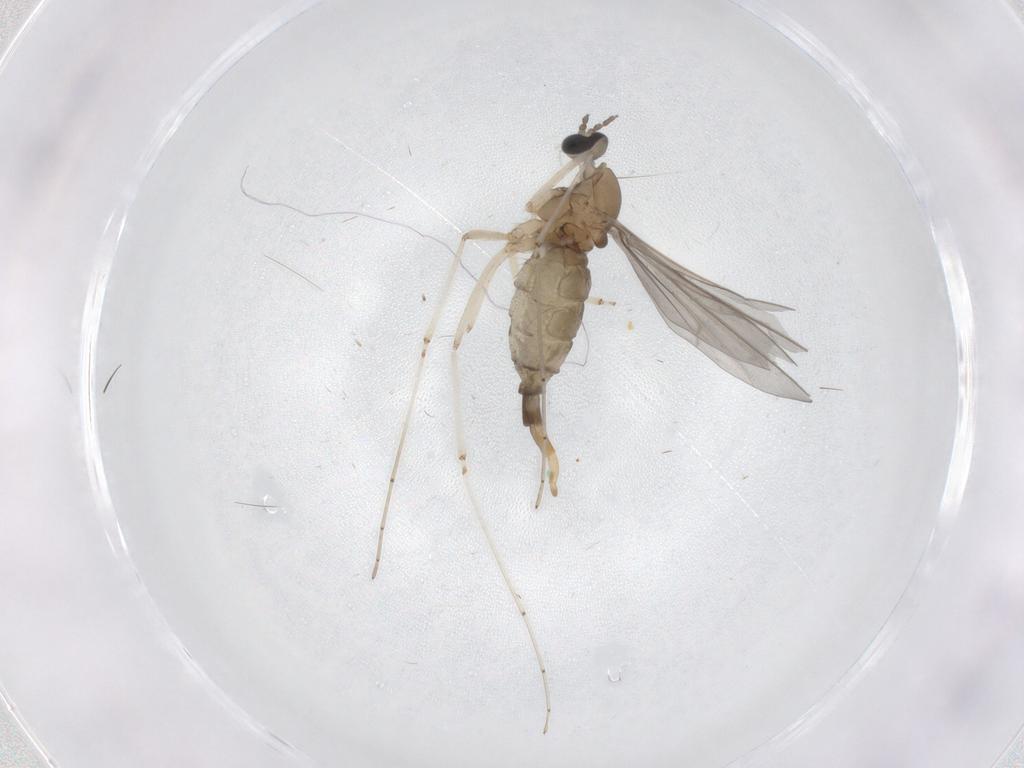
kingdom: Animalia
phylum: Arthropoda
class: Insecta
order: Diptera
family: Cecidomyiidae
